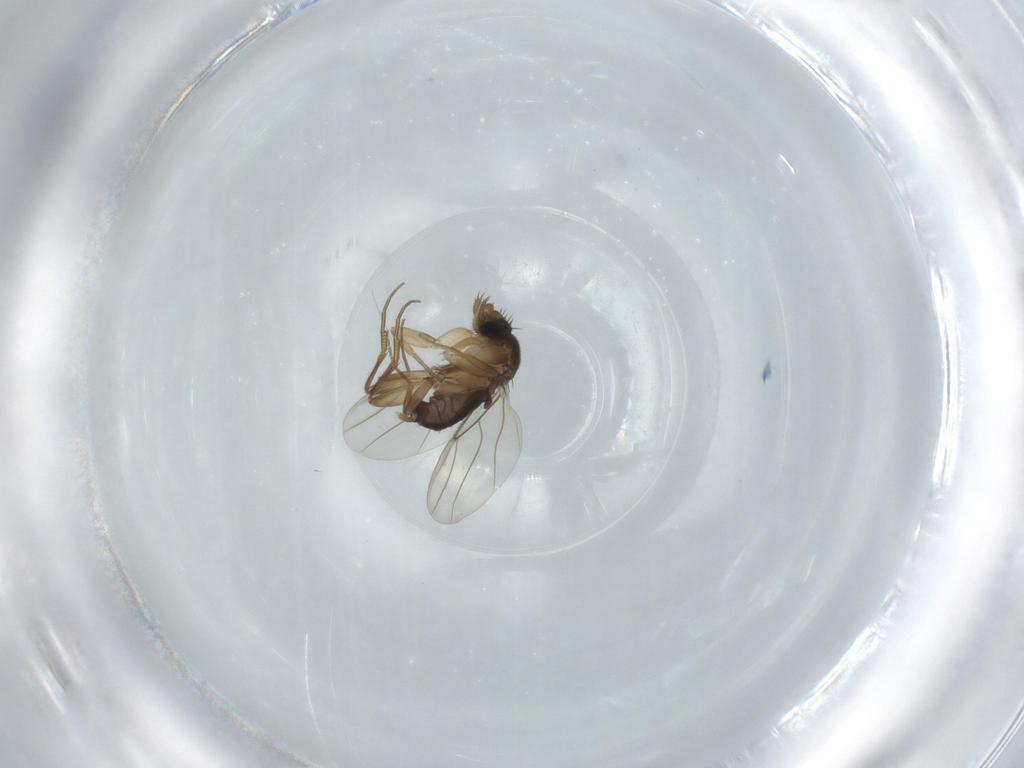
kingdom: Animalia
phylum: Arthropoda
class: Insecta
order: Diptera
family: Phoridae
